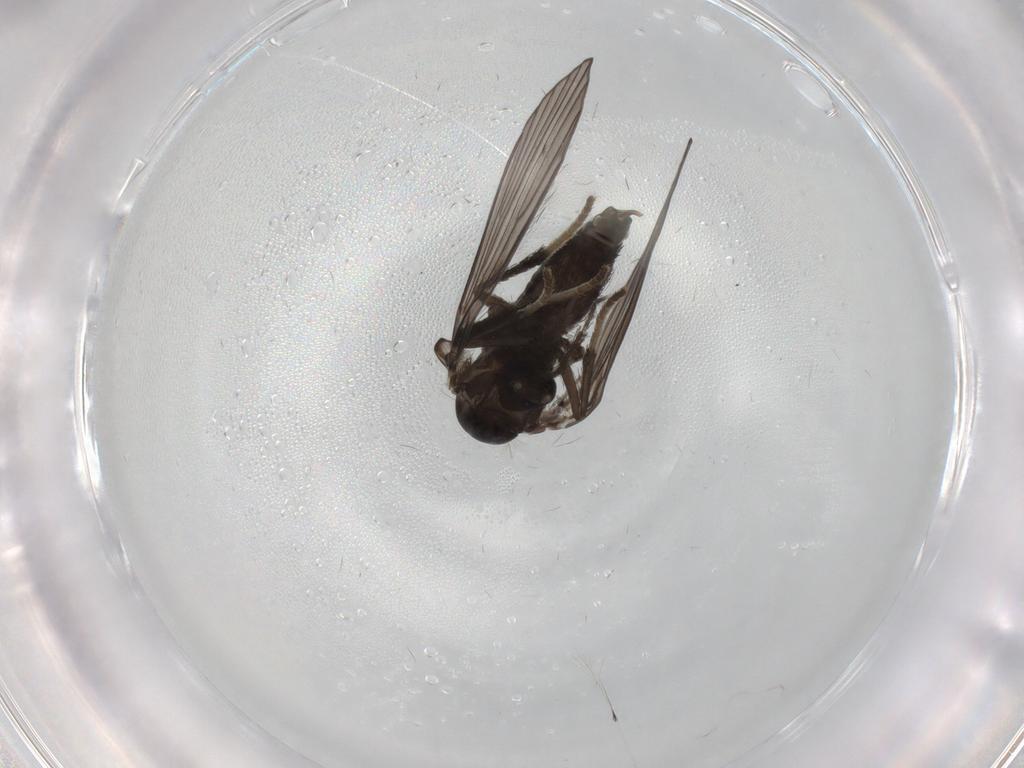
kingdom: Animalia
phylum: Arthropoda
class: Insecta
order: Diptera
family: Psychodidae
